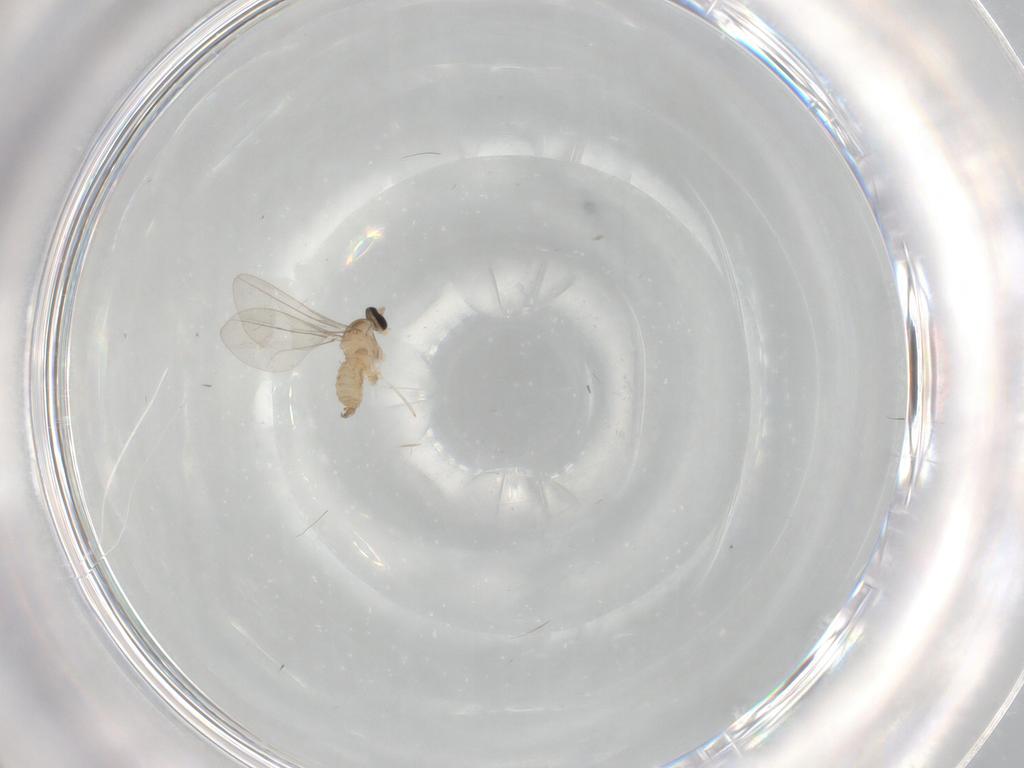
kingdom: Animalia
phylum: Arthropoda
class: Insecta
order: Diptera
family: Cecidomyiidae
